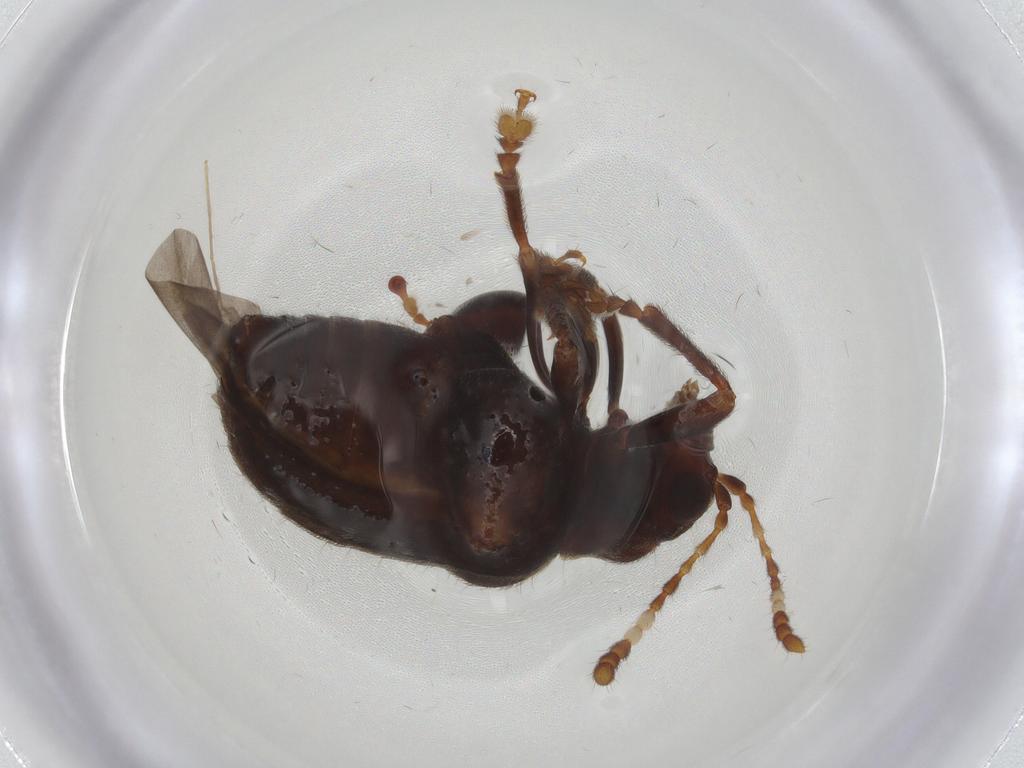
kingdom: Animalia
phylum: Arthropoda
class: Insecta
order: Coleoptera
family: Chrysomelidae
